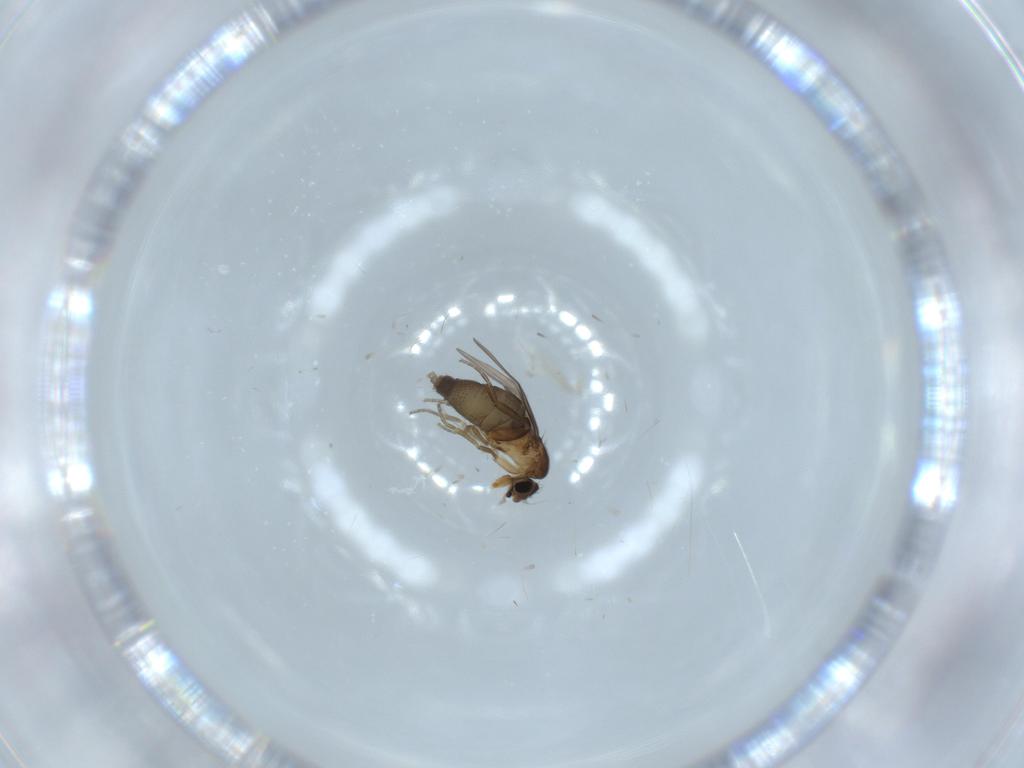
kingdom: Animalia
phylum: Arthropoda
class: Insecta
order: Diptera
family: Phoridae
